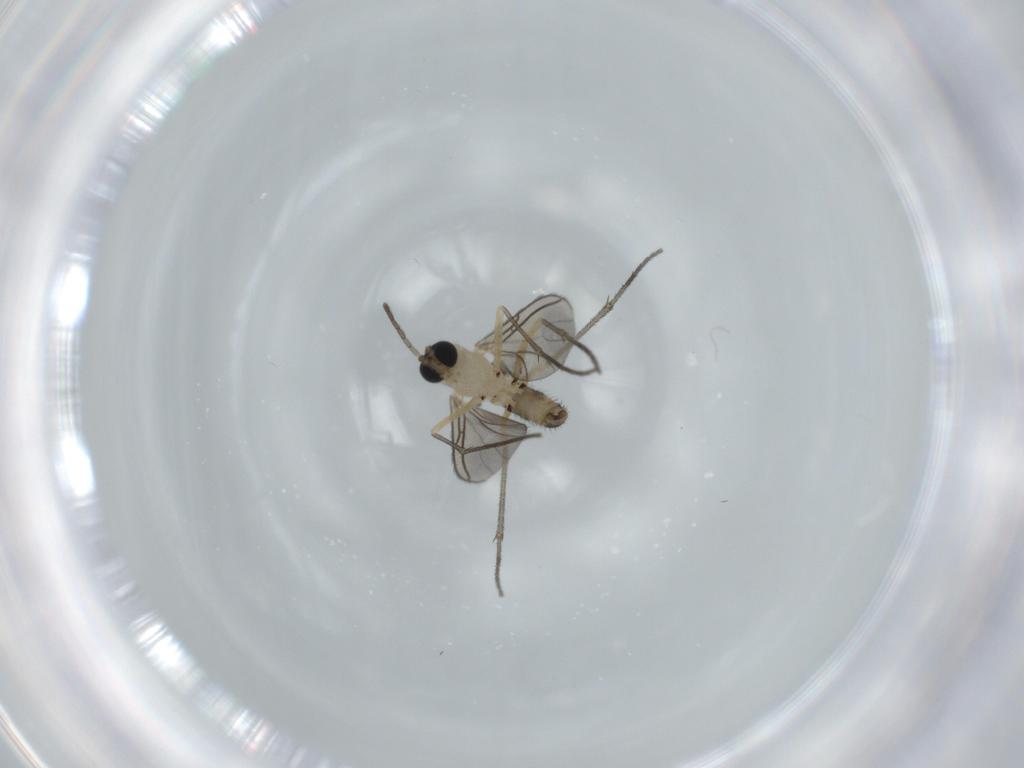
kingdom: Animalia
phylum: Arthropoda
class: Insecta
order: Diptera
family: Sciaridae
